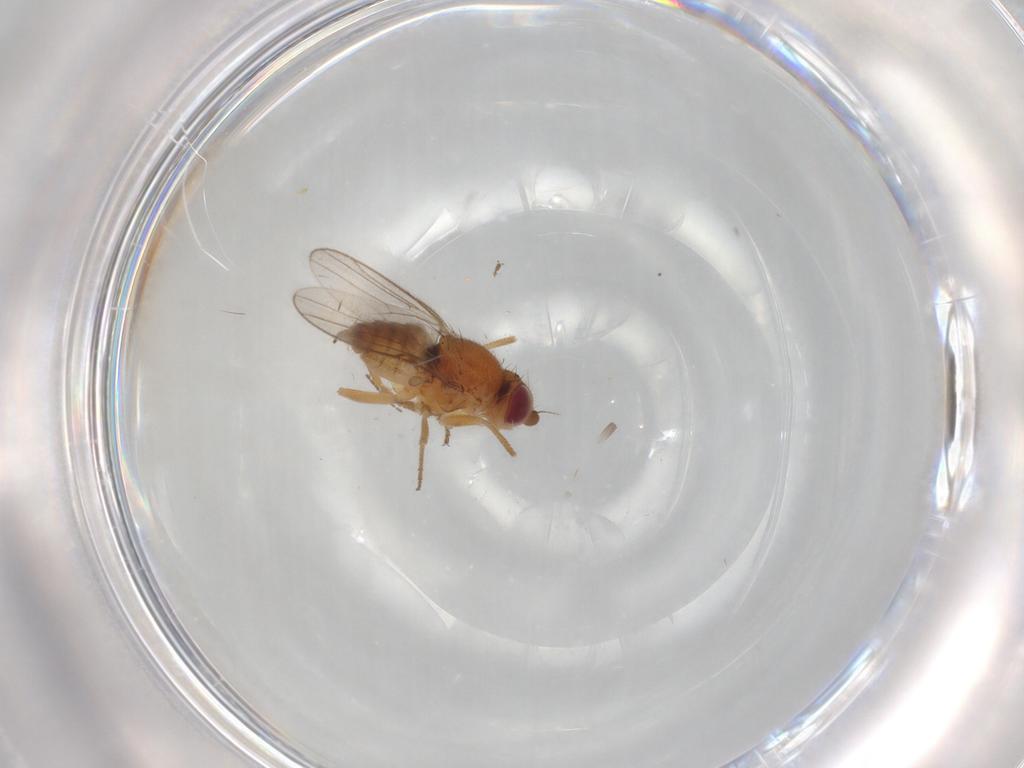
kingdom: Animalia
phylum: Arthropoda
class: Insecta
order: Diptera
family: Chloropidae
